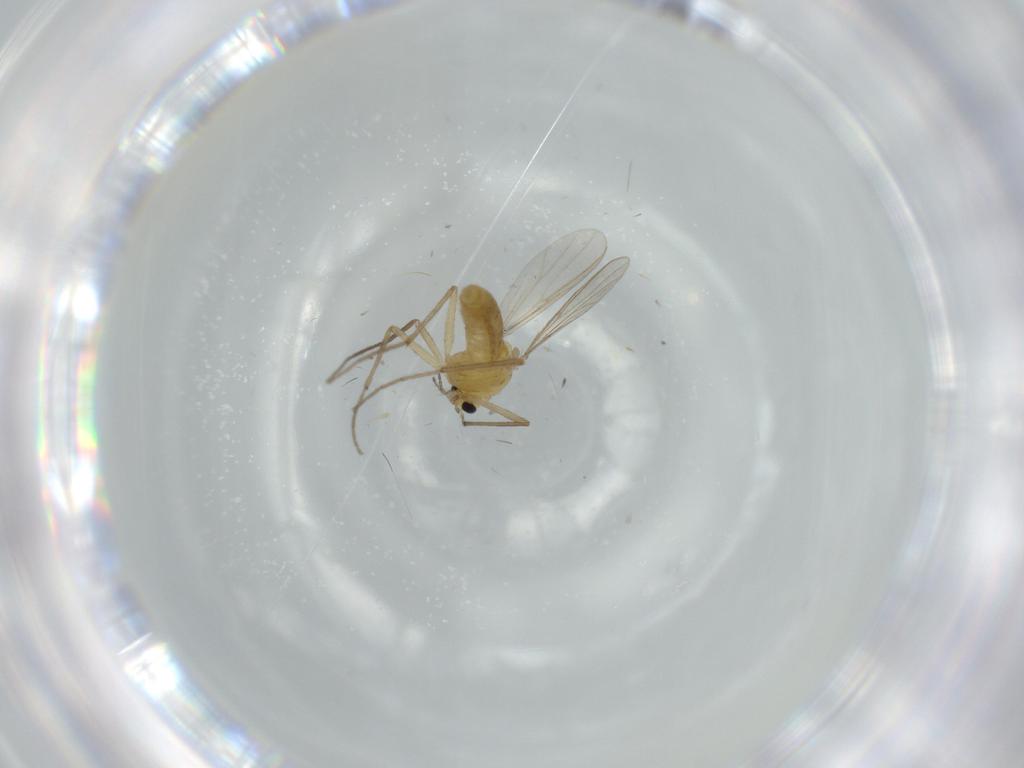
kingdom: Animalia
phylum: Arthropoda
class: Insecta
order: Diptera
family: Chironomidae
